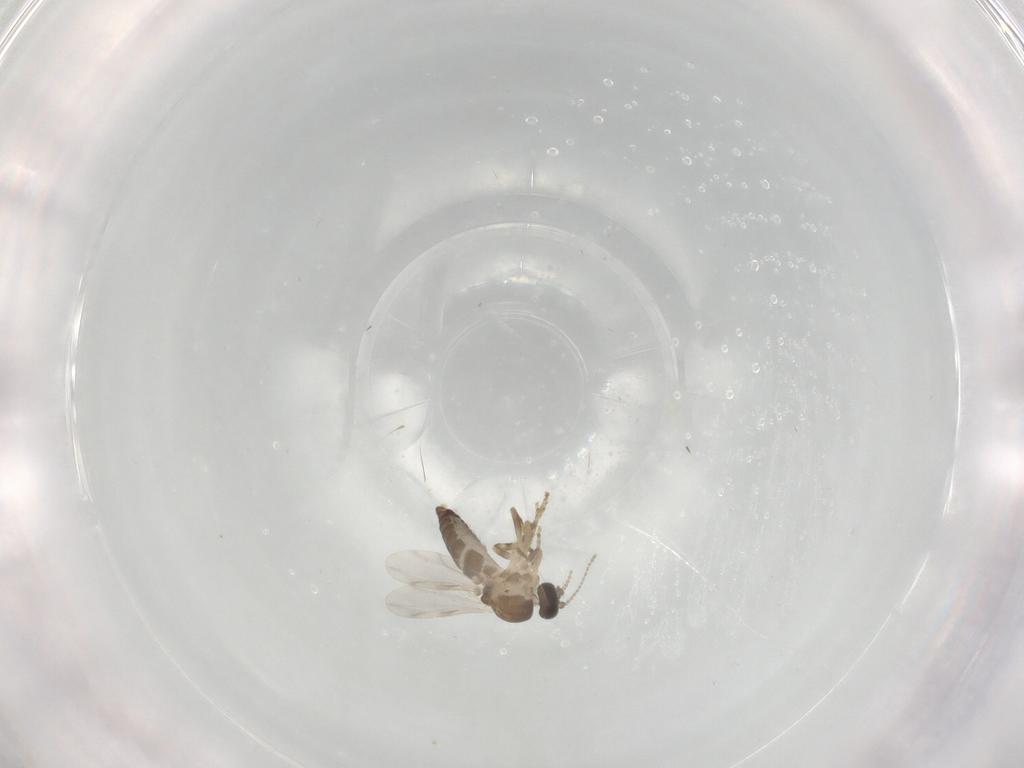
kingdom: Animalia
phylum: Arthropoda
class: Insecta
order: Diptera
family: Ceratopogonidae
